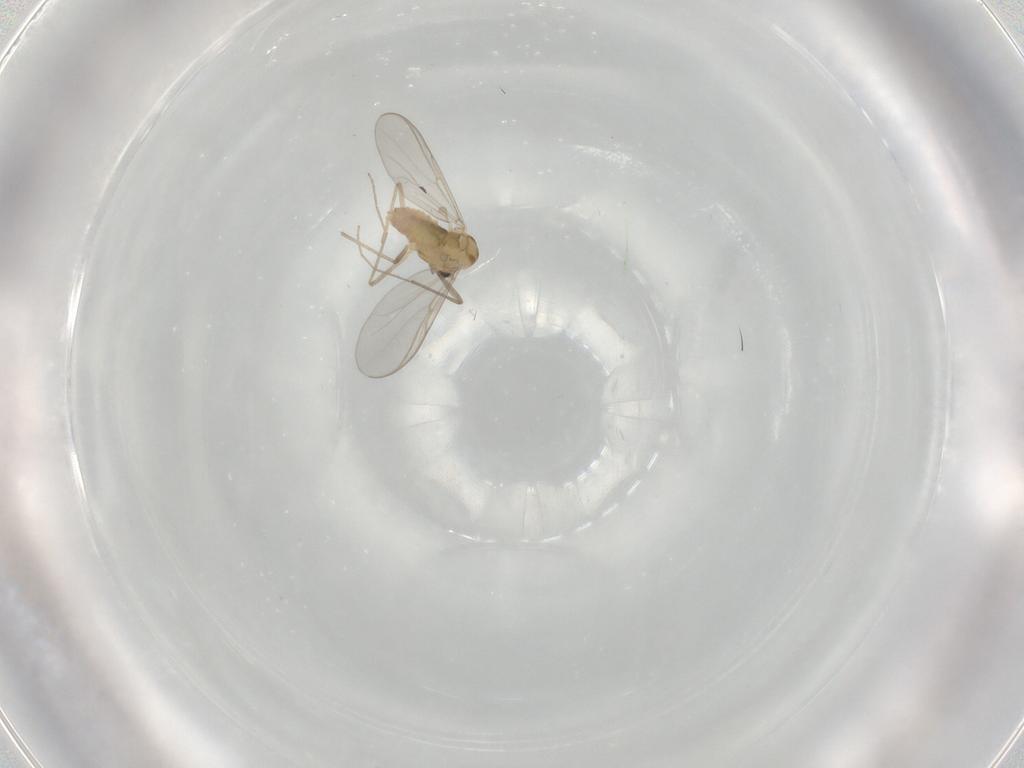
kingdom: Animalia
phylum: Arthropoda
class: Insecta
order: Diptera
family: Chironomidae
